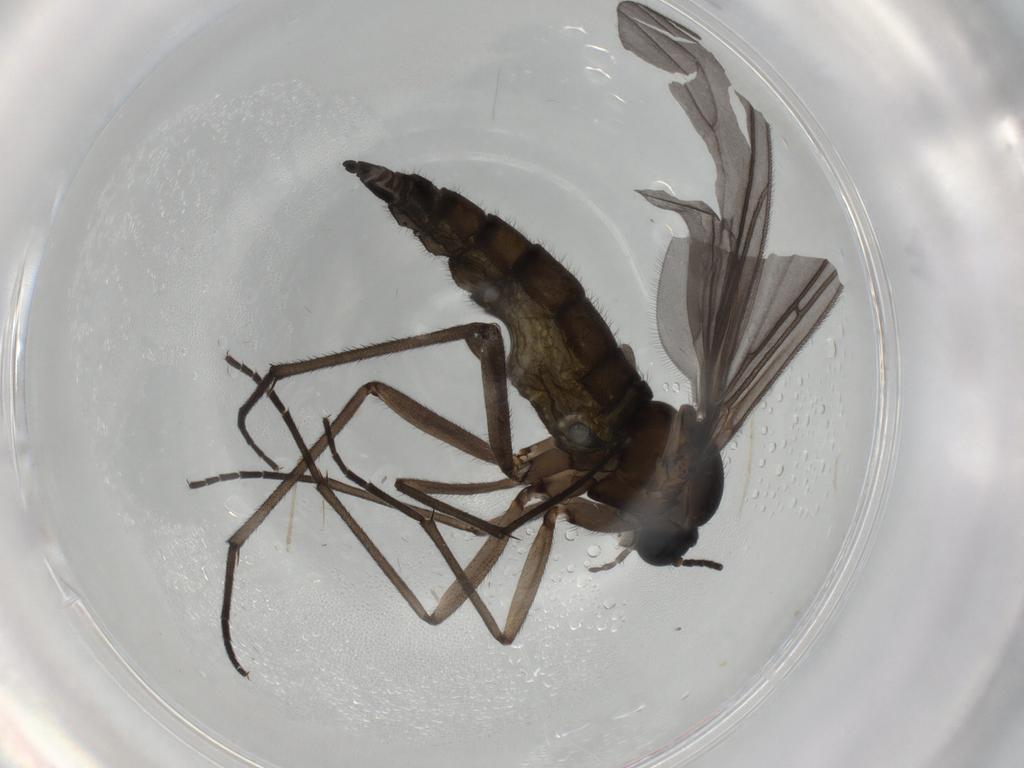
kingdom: Animalia
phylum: Arthropoda
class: Insecta
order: Diptera
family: Sciaridae
